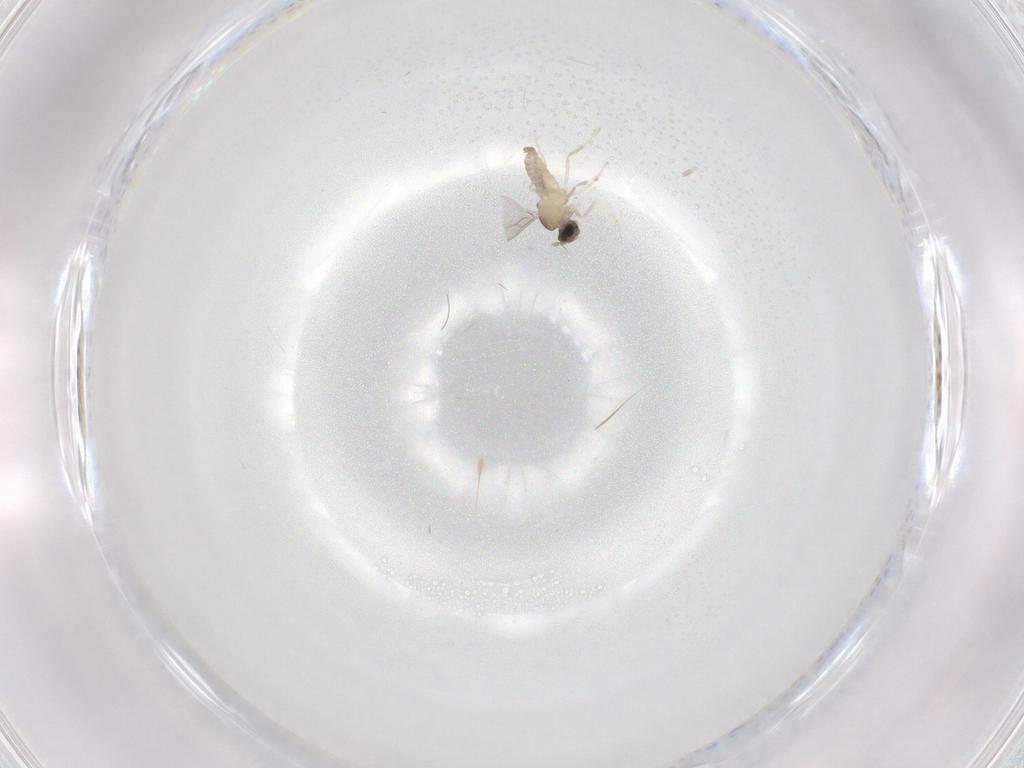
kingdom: Animalia
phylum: Arthropoda
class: Insecta
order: Diptera
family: Cecidomyiidae
